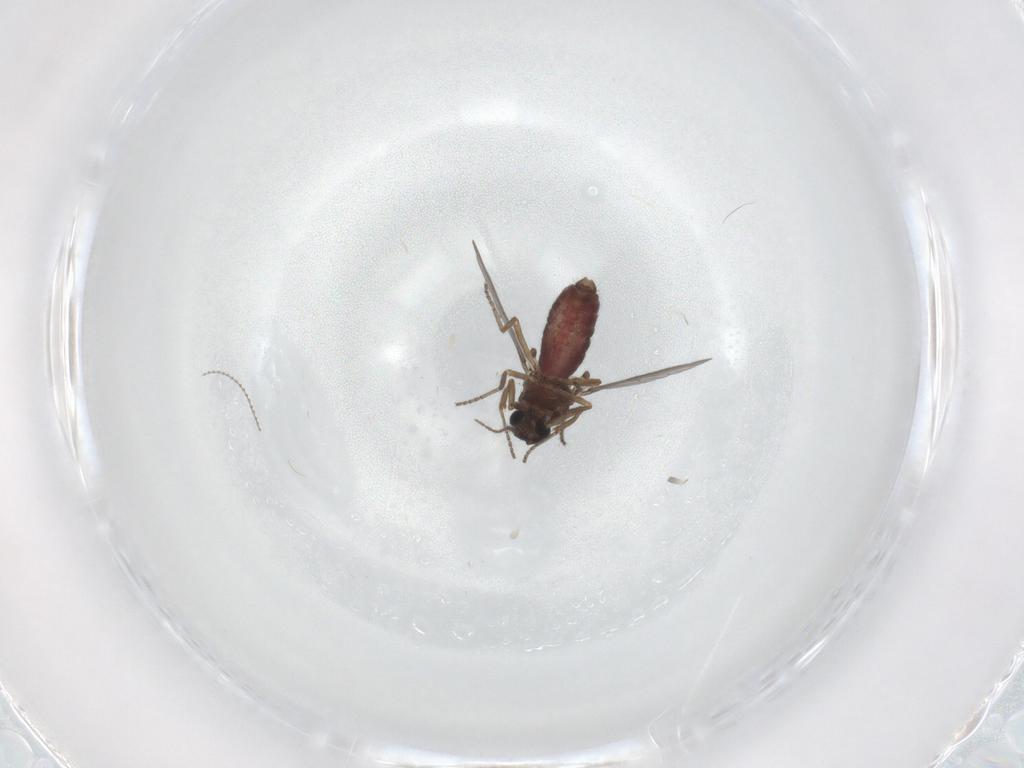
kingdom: Animalia
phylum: Arthropoda
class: Insecta
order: Diptera
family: Ceratopogonidae
